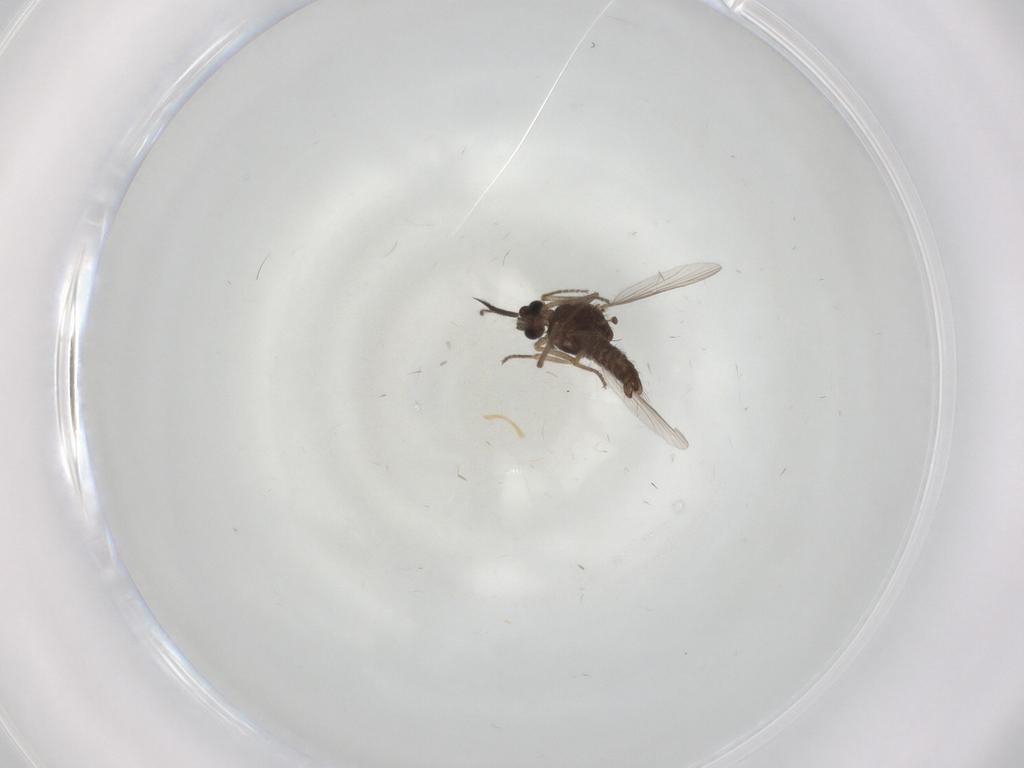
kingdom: Animalia
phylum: Arthropoda
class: Insecta
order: Diptera
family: Ceratopogonidae
